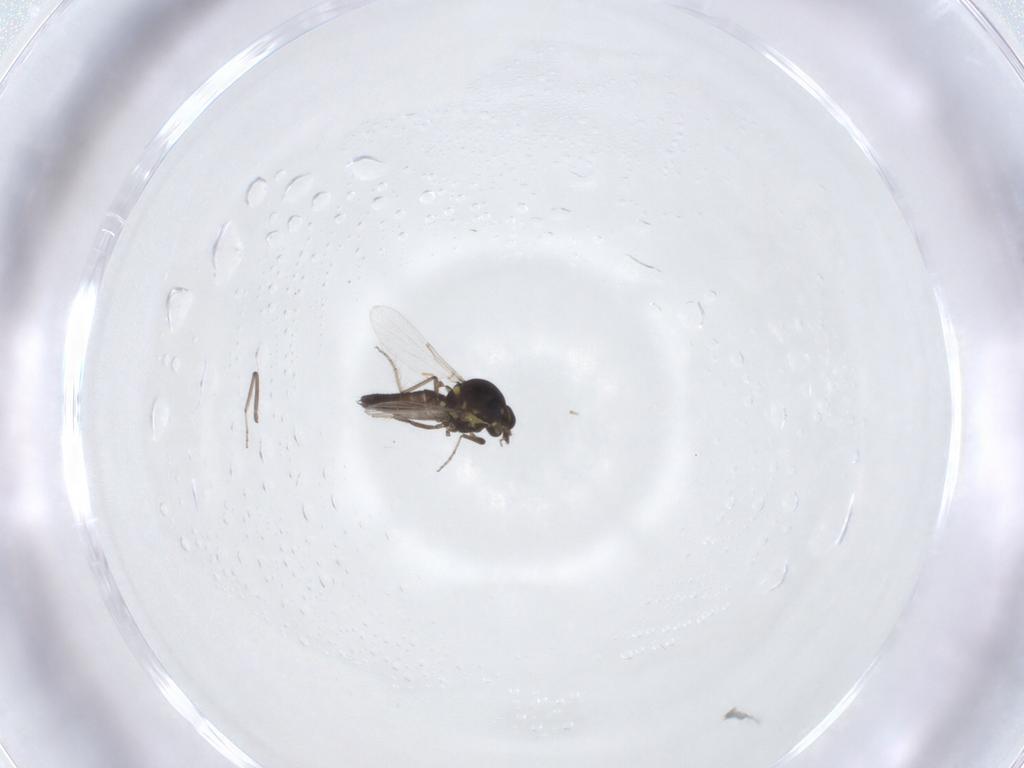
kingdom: Animalia
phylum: Arthropoda
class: Insecta
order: Diptera
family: Ceratopogonidae
